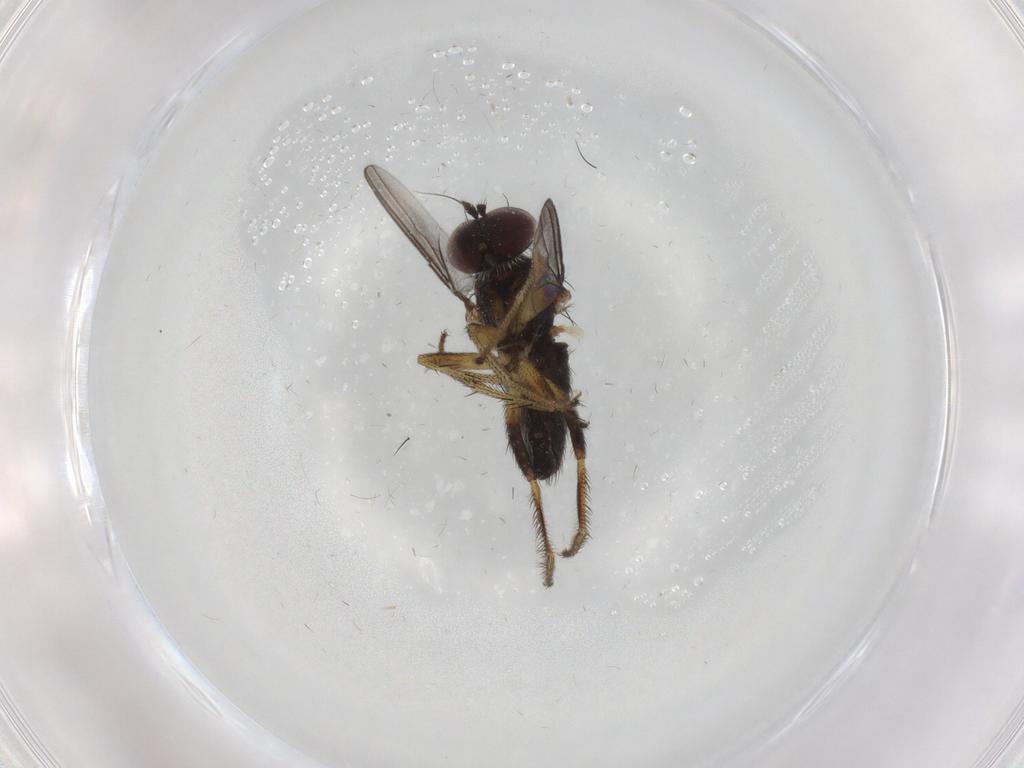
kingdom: Animalia
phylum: Arthropoda
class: Insecta
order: Diptera
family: Dolichopodidae
